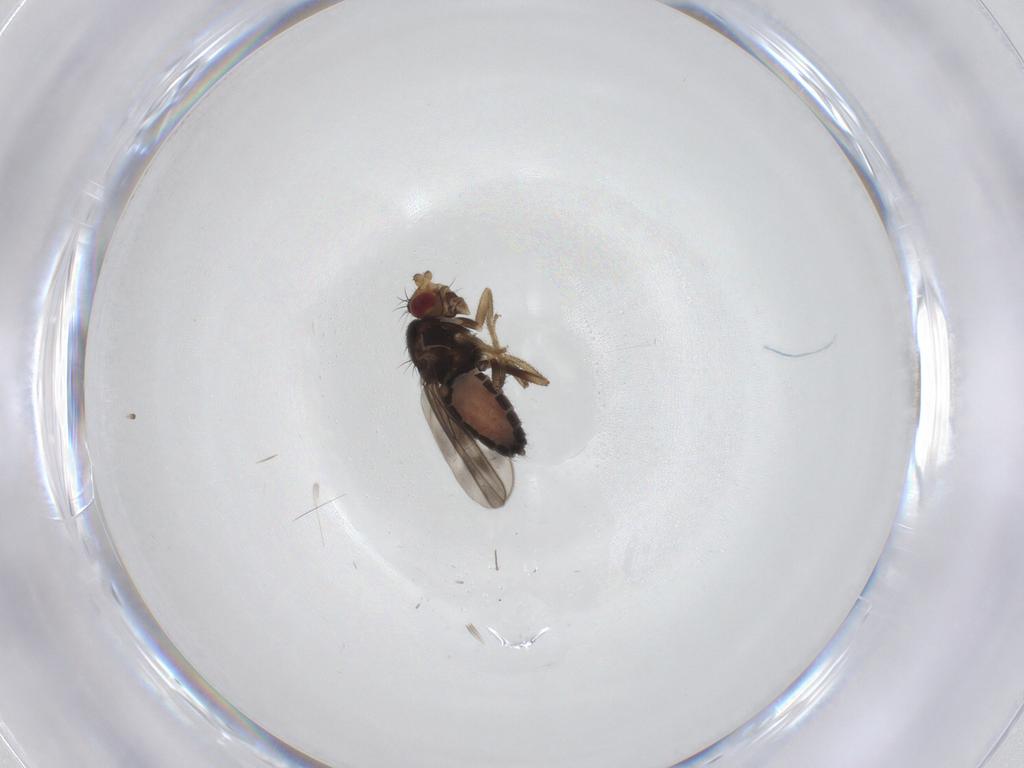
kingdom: Animalia
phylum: Arthropoda
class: Insecta
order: Diptera
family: Sphaeroceridae
